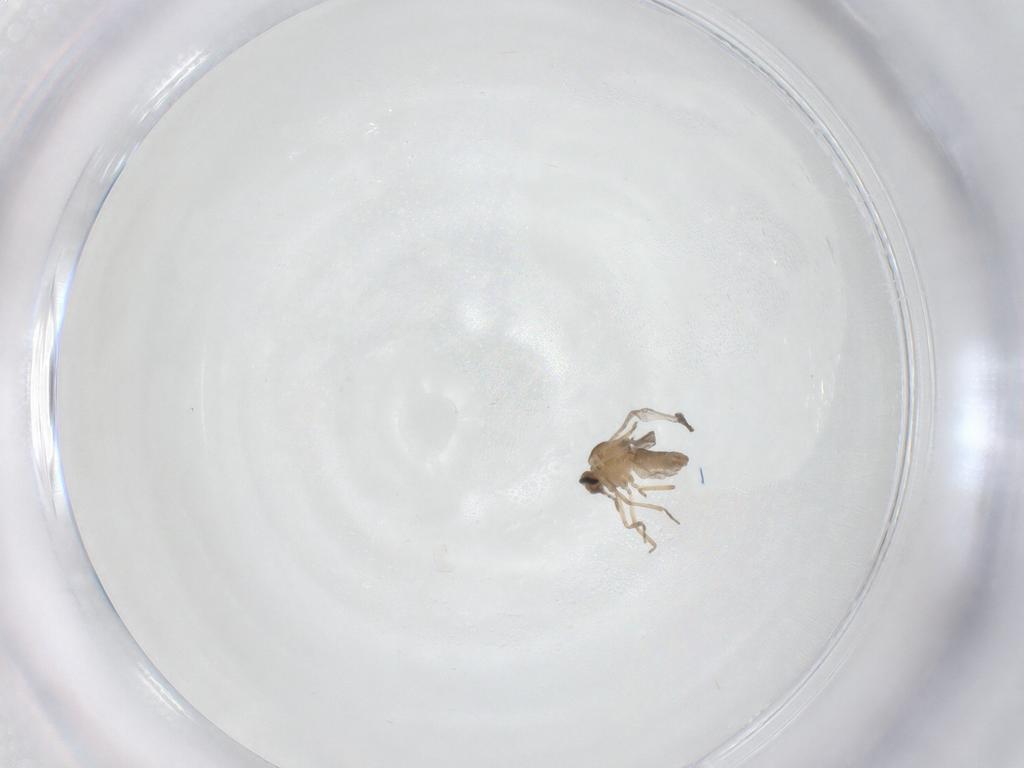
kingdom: Animalia
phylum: Arthropoda
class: Insecta
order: Diptera
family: Ceratopogonidae
